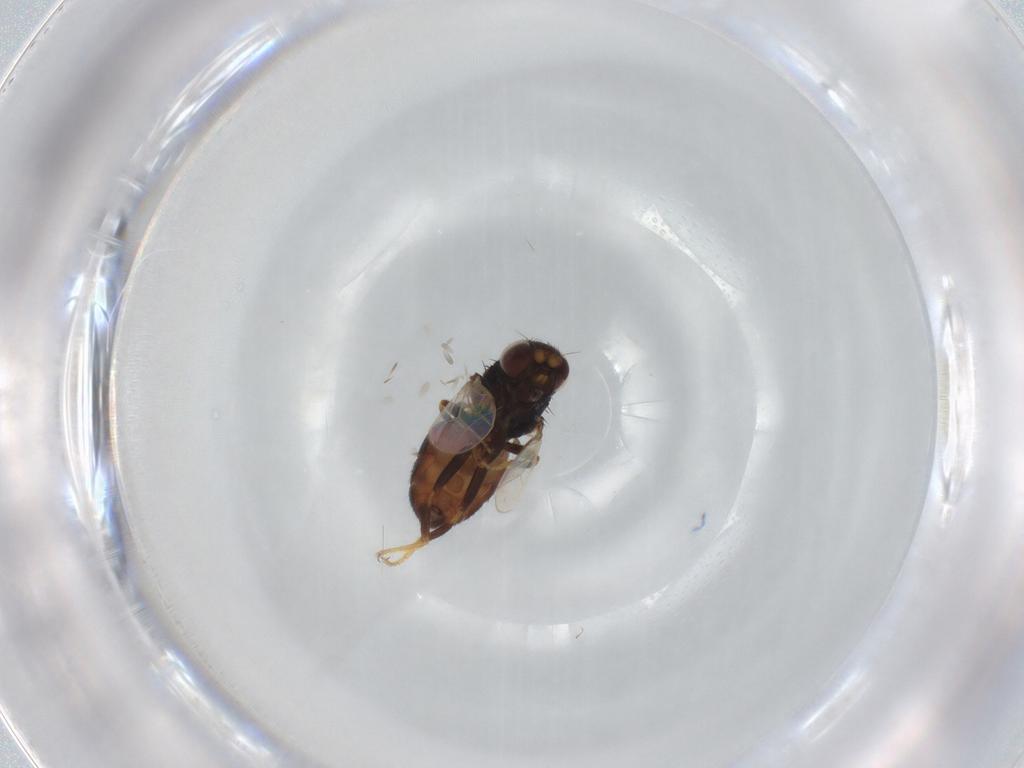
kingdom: Animalia
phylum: Arthropoda
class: Insecta
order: Diptera
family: Chloropidae
